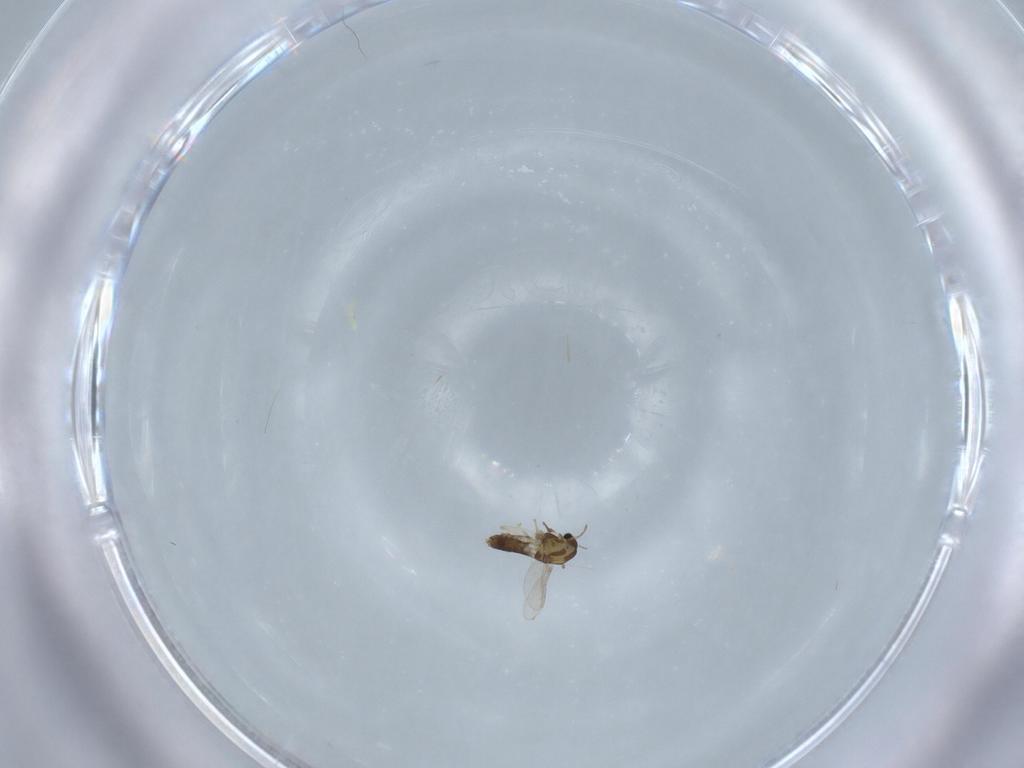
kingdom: Animalia
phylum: Arthropoda
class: Insecta
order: Diptera
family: Chironomidae
